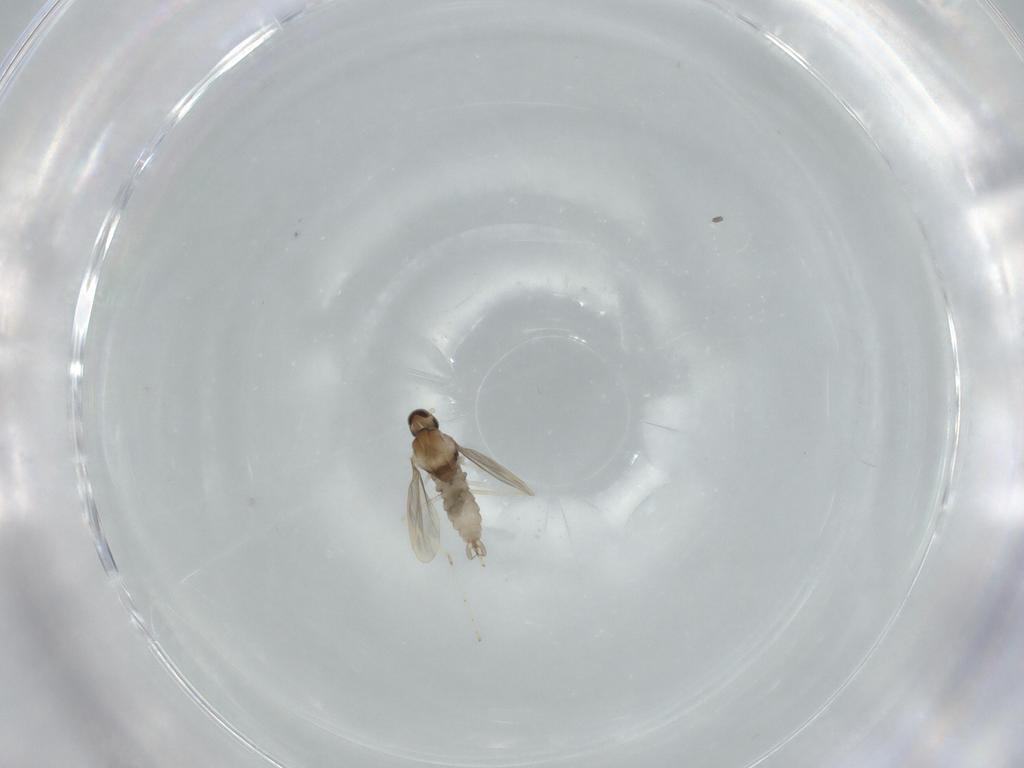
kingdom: Animalia
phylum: Arthropoda
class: Insecta
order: Diptera
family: Cecidomyiidae
